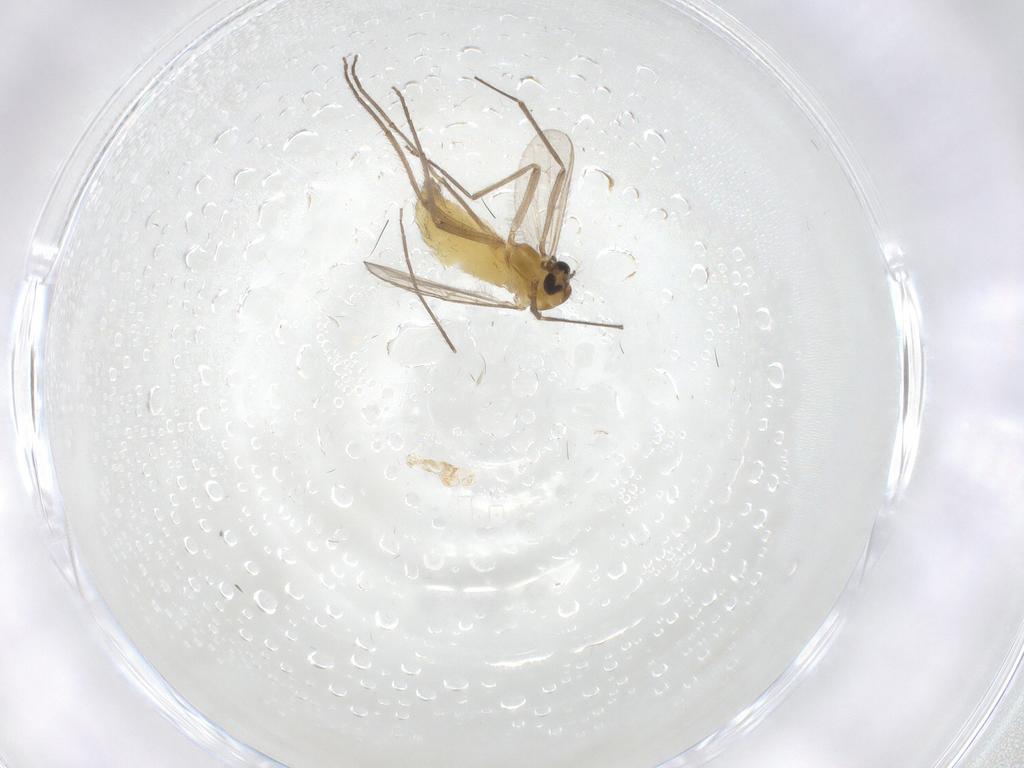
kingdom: Animalia
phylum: Arthropoda
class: Insecta
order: Diptera
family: Chironomidae
